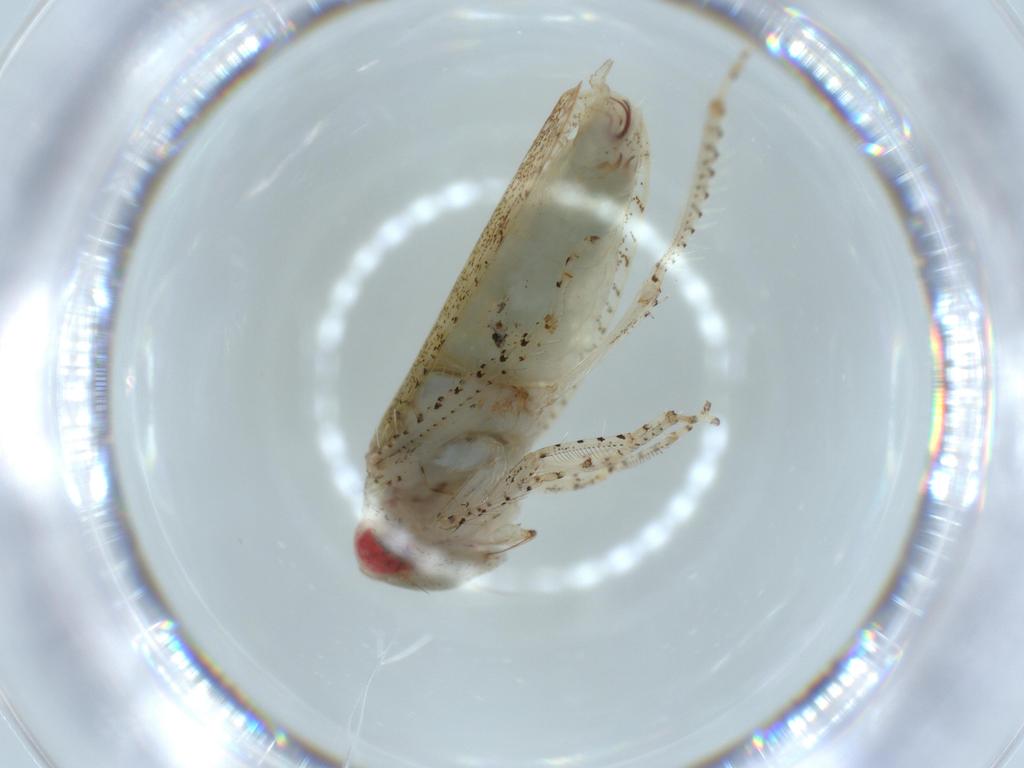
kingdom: Animalia
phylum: Arthropoda
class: Insecta
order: Hemiptera
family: Cicadellidae
